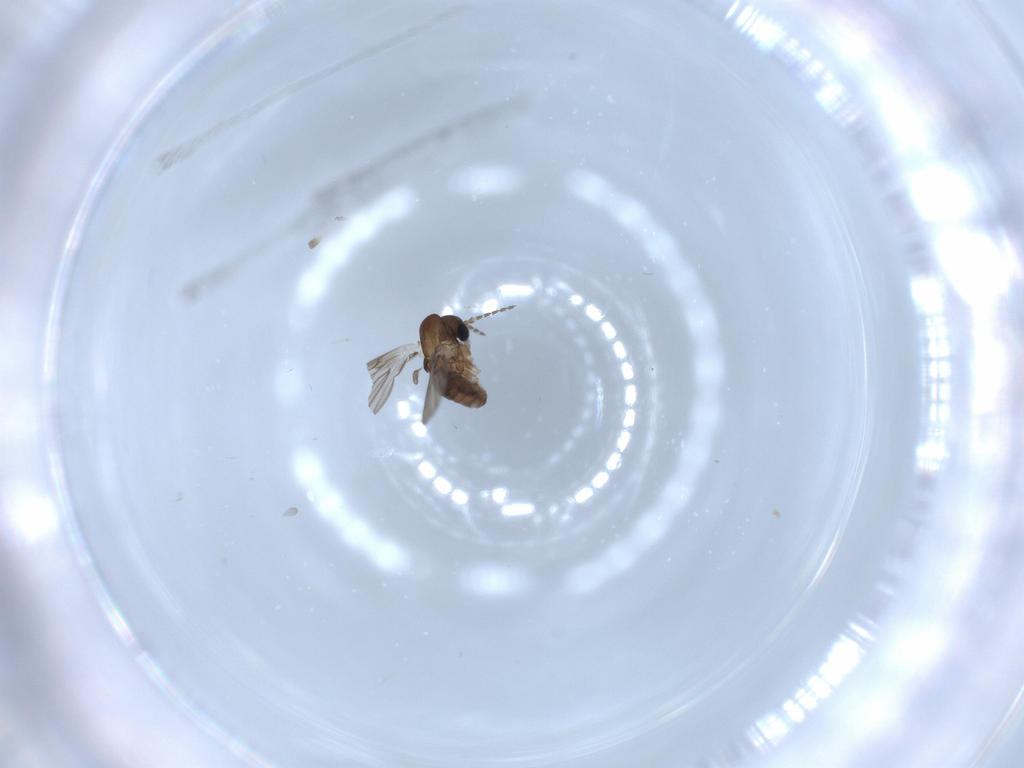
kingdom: Animalia
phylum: Arthropoda
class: Insecta
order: Diptera
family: Psychodidae
